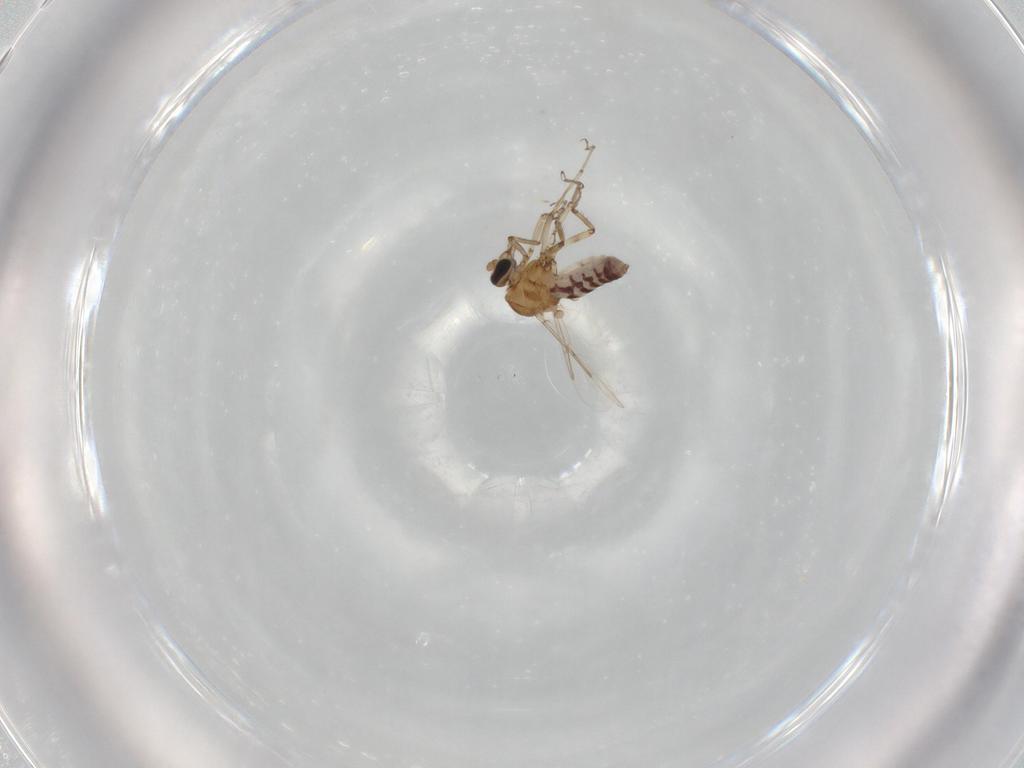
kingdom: Animalia
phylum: Arthropoda
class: Insecta
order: Diptera
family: Ceratopogonidae
